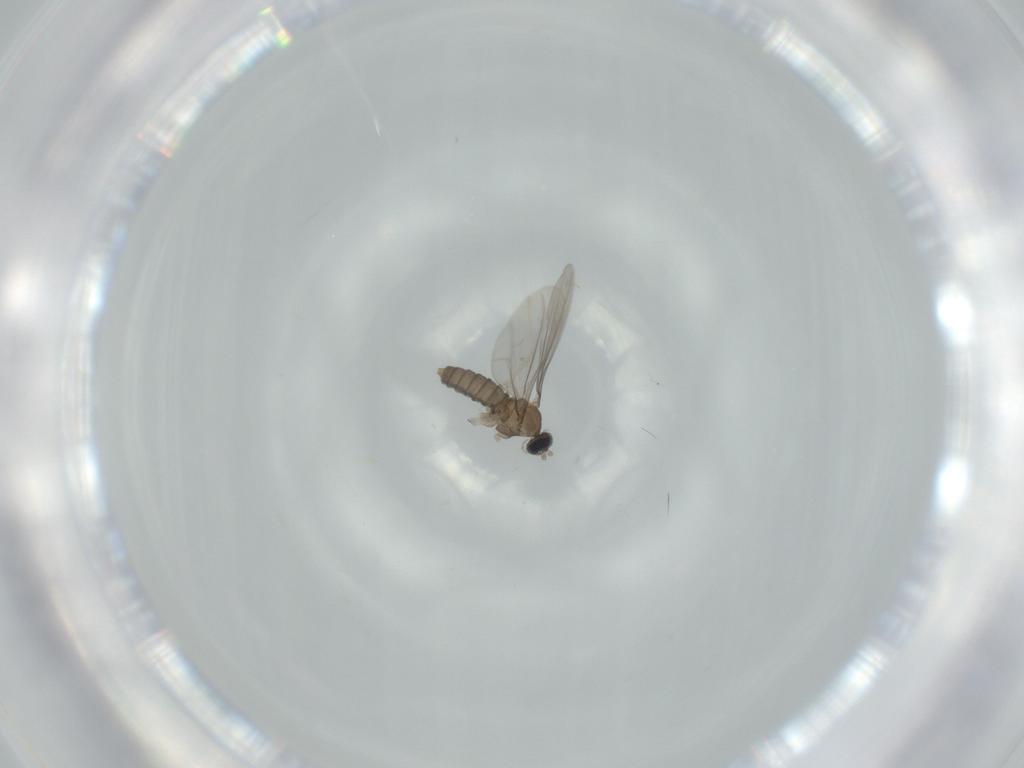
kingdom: Animalia
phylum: Arthropoda
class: Insecta
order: Diptera
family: Cecidomyiidae
